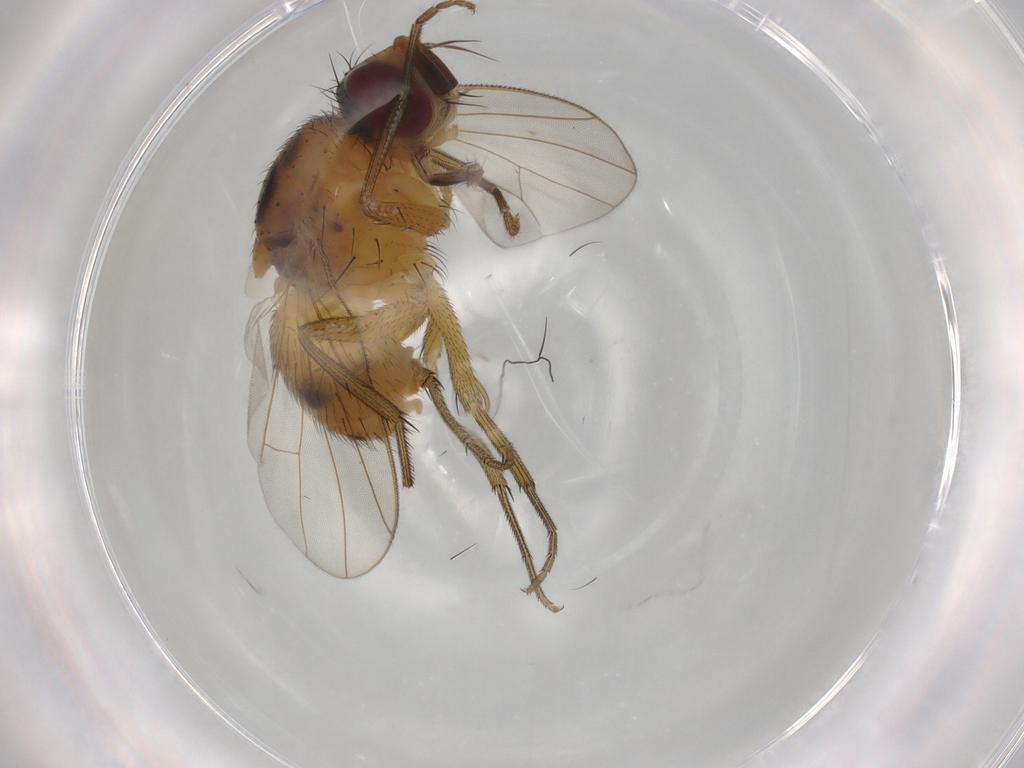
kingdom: Animalia
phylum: Arthropoda
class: Insecta
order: Diptera
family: Muscidae
